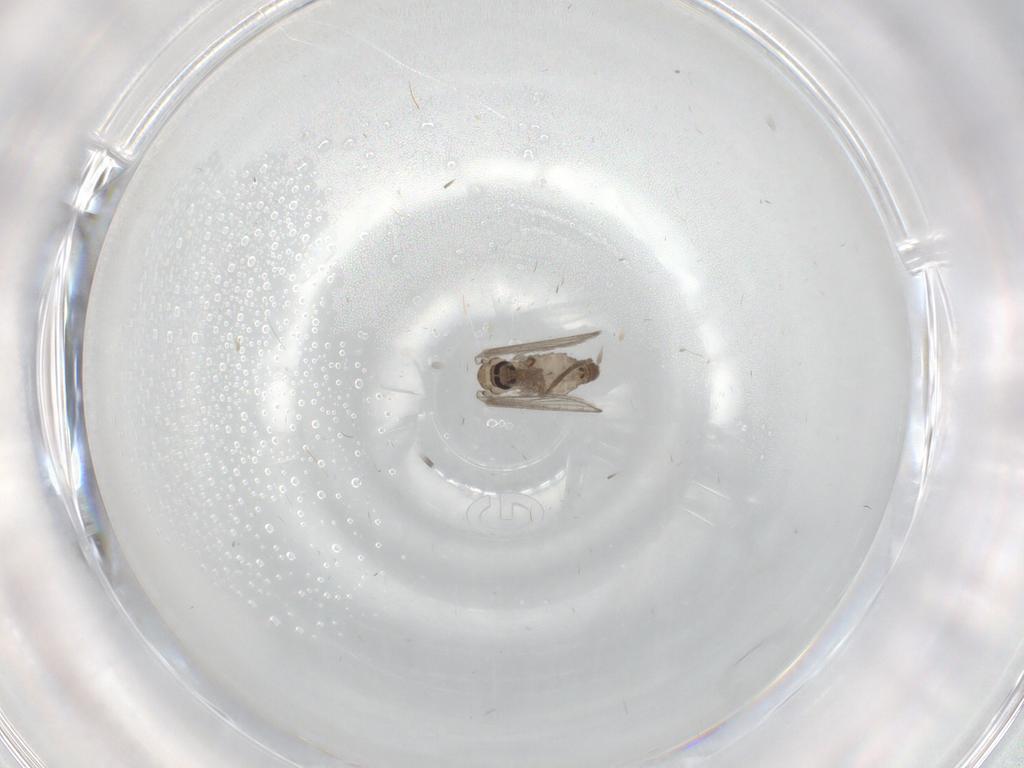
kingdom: Animalia
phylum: Arthropoda
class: Insecta
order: Diptera
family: Psychodidae
